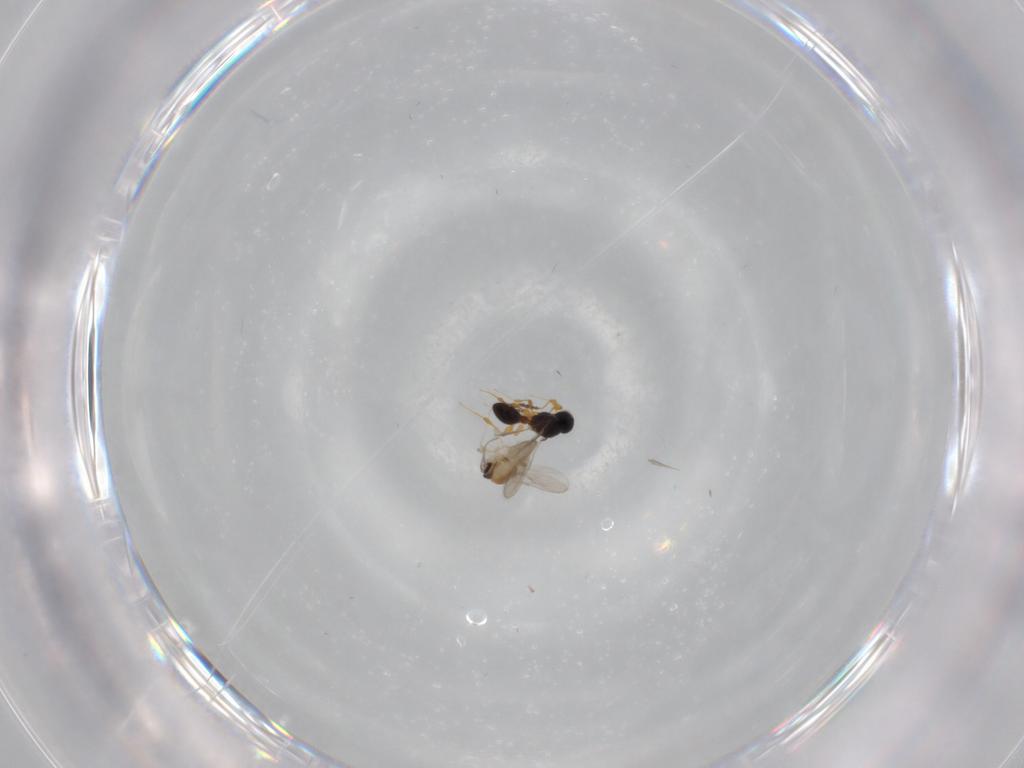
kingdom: Animalia
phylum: Arthropoda
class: Insecta
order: Diptera
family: Ceratopogonidae
